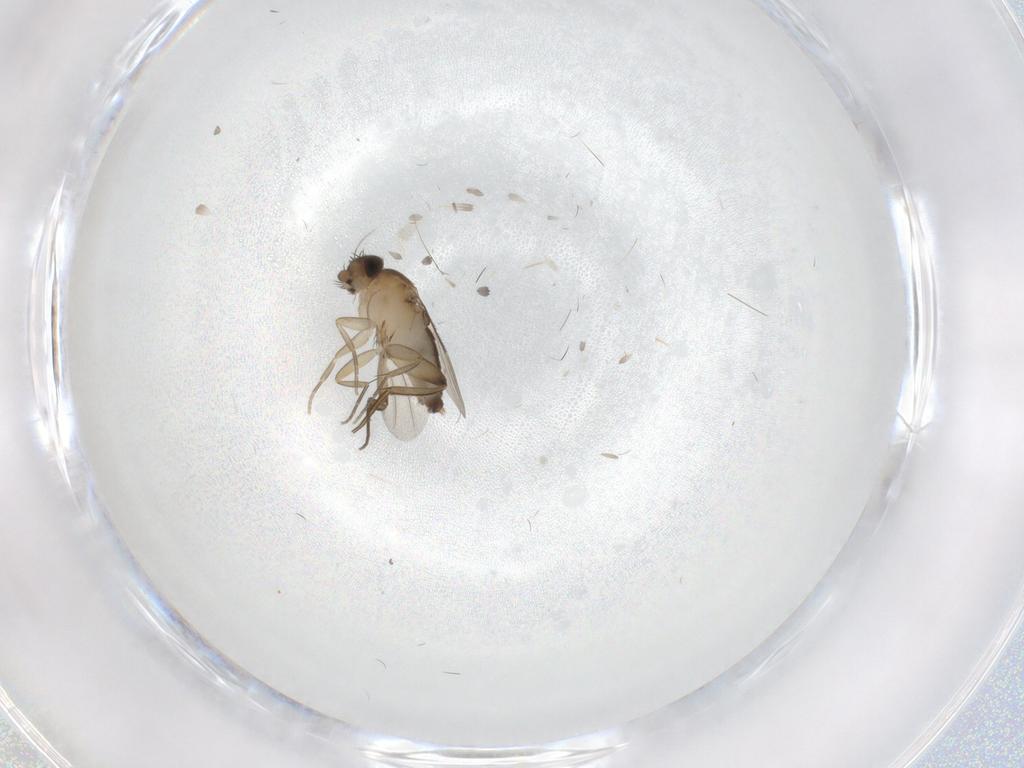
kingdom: Animalia
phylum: Arthropoda
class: Insecta
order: Diptera
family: Phoridae
